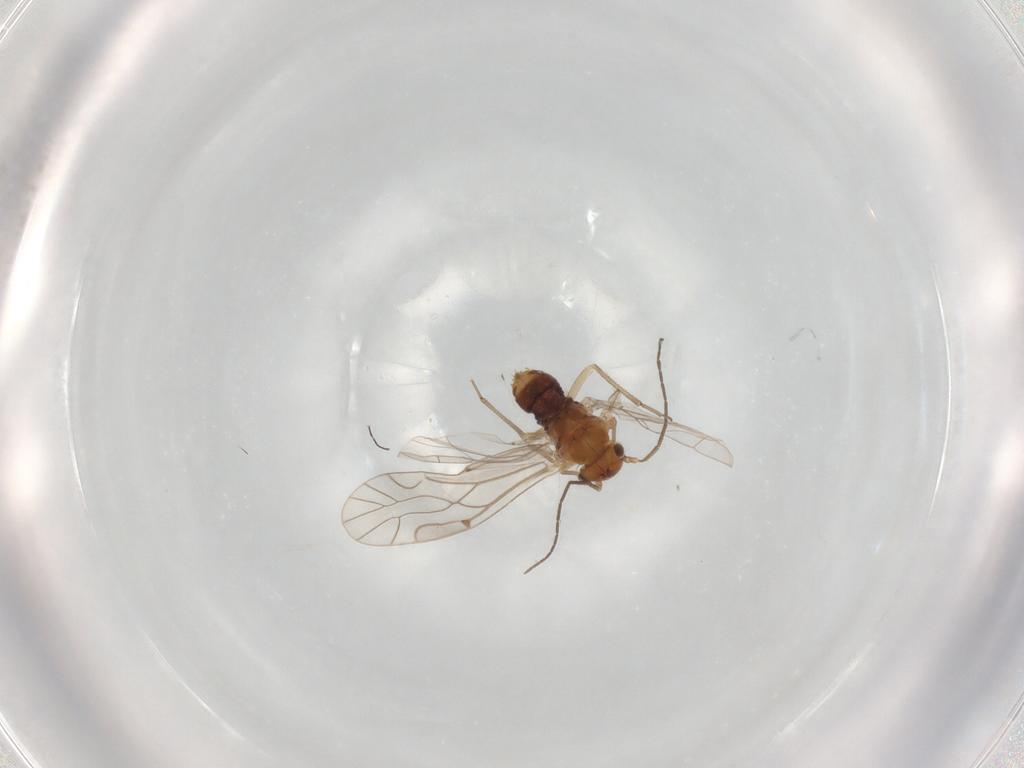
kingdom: Animalia
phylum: Arthropoda
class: Insecta
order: Psocodea
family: Lachesillidae
